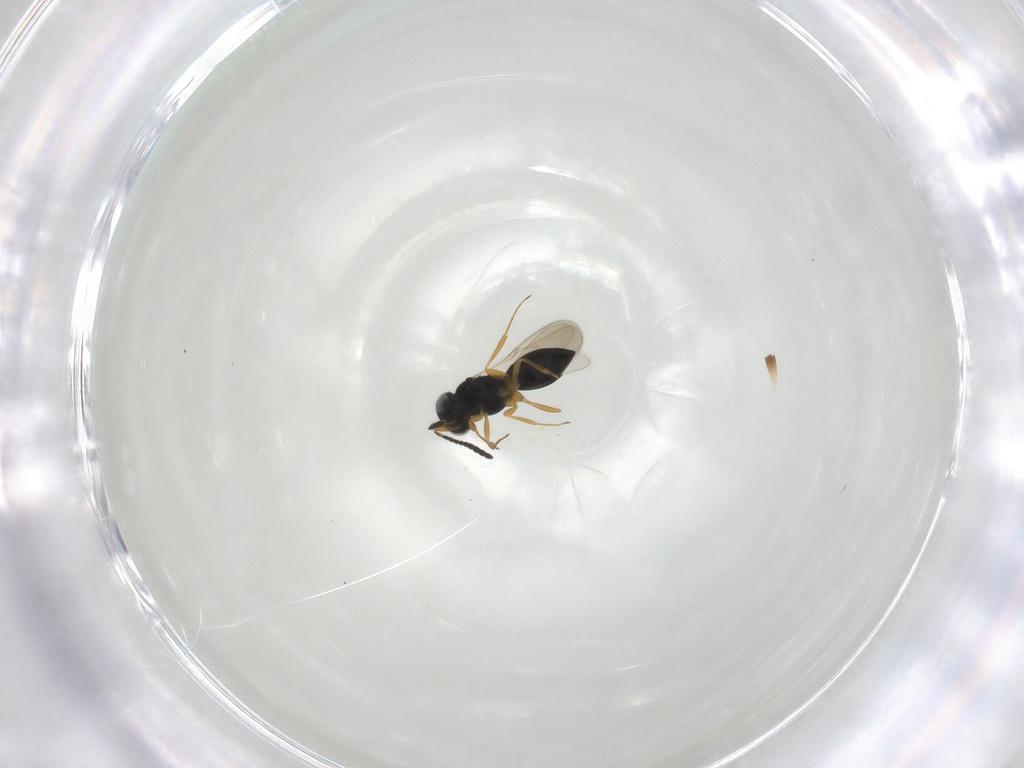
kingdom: Animalia
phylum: Arthropoda
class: Insecta
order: Hymenoptera
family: Scelionidae
